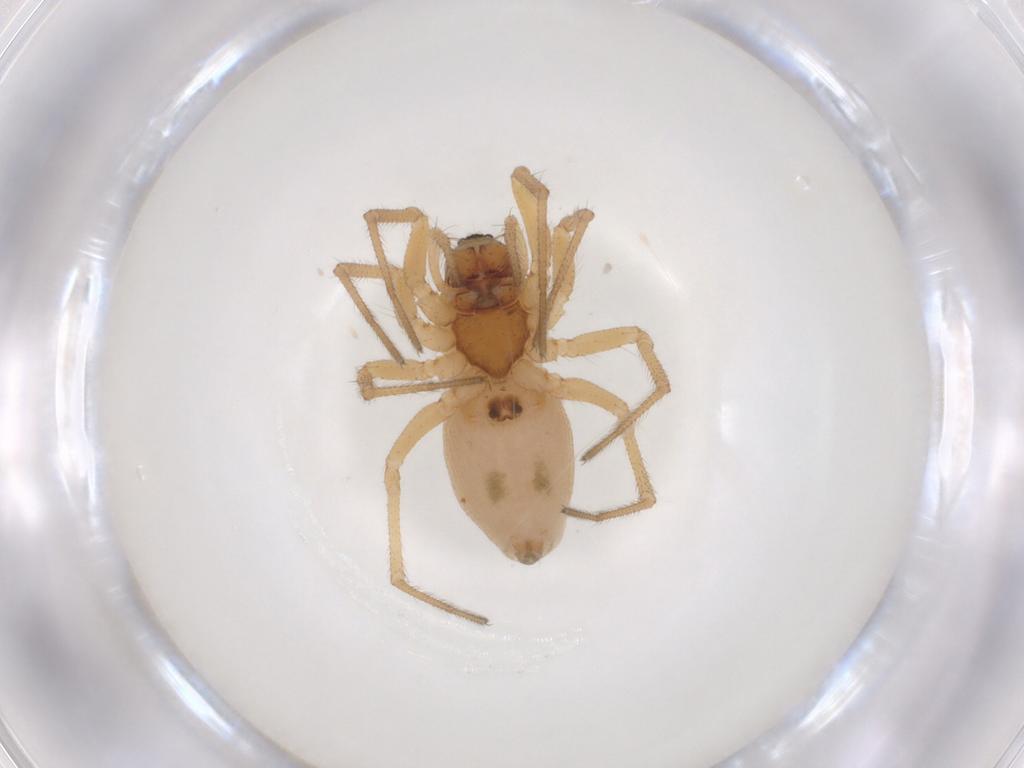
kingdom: Animalia
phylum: Arthropoda
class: Arachnida
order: Araneae
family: Linyphiidae
